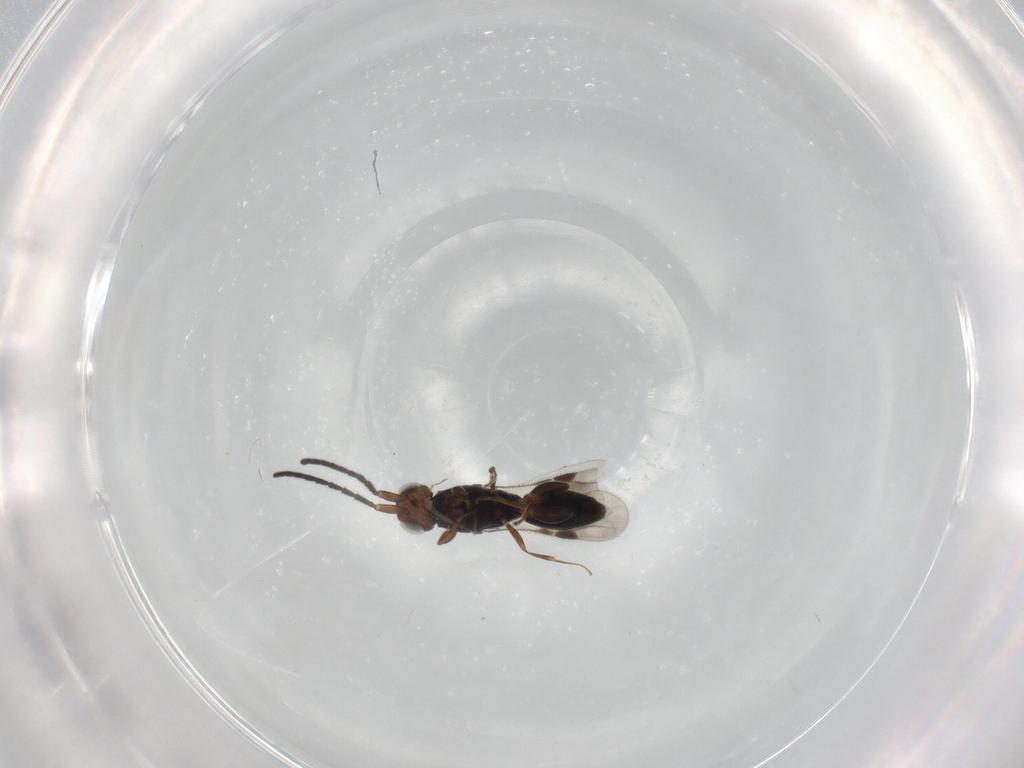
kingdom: Animalia
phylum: Arthropoda
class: Insecta
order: Hymenoptera
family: Megaspilidae
